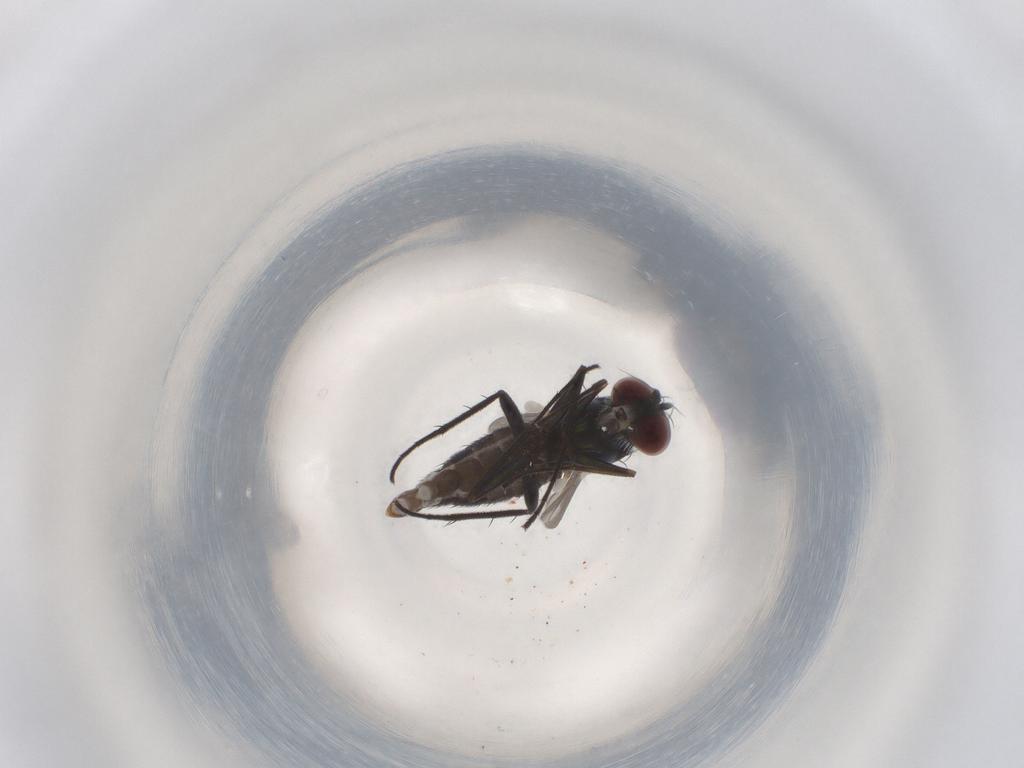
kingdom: Animalia
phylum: Arthropoda
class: Insecta
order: Diptera
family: Dolichopodidae
